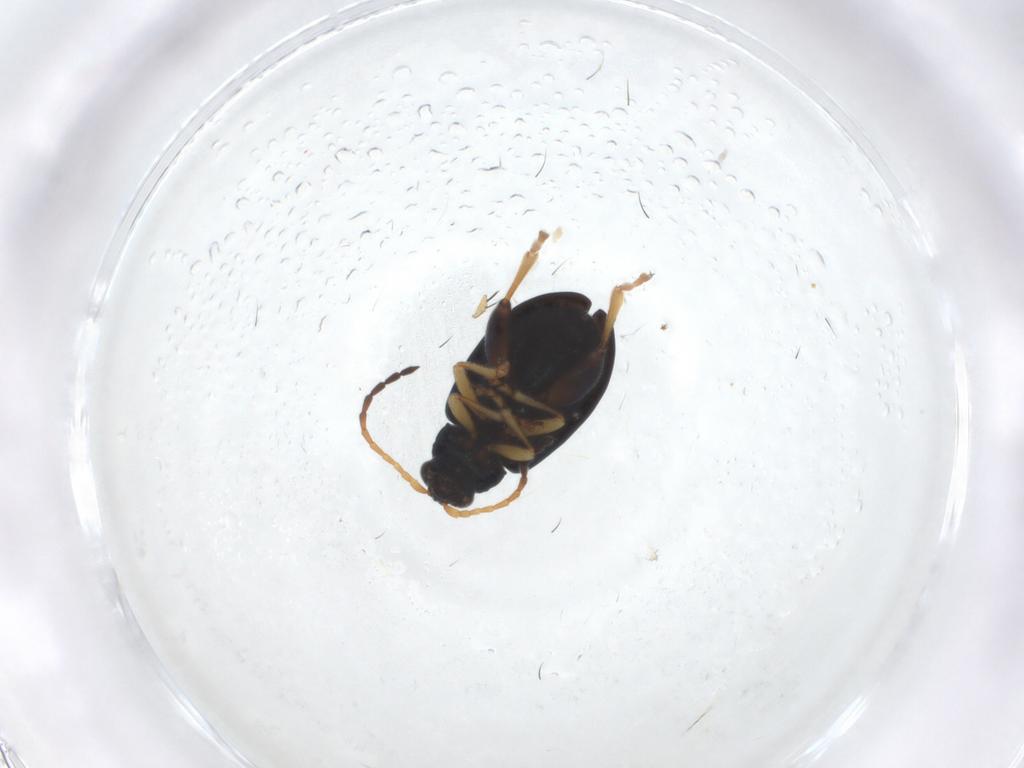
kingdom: Animalia
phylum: Arthropoda
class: Insecta
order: Coleoptera
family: Chrysomelidae
